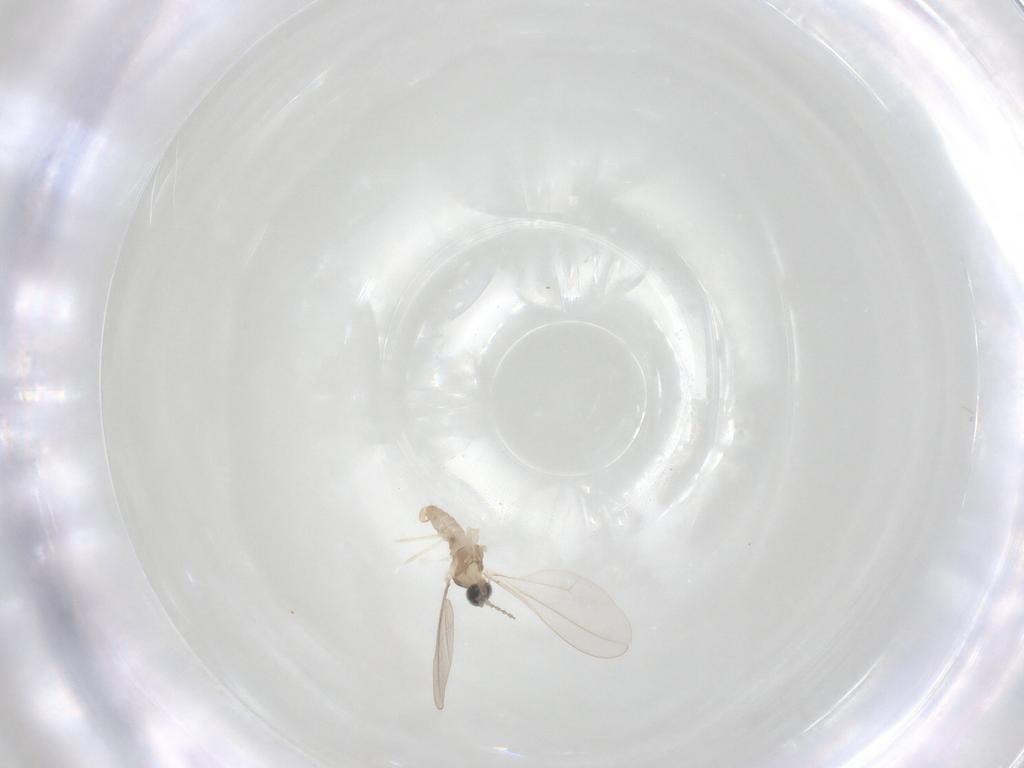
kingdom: Animalia
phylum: Arthropoda
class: Insecta
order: Diptera
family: Cecidomyiidae
